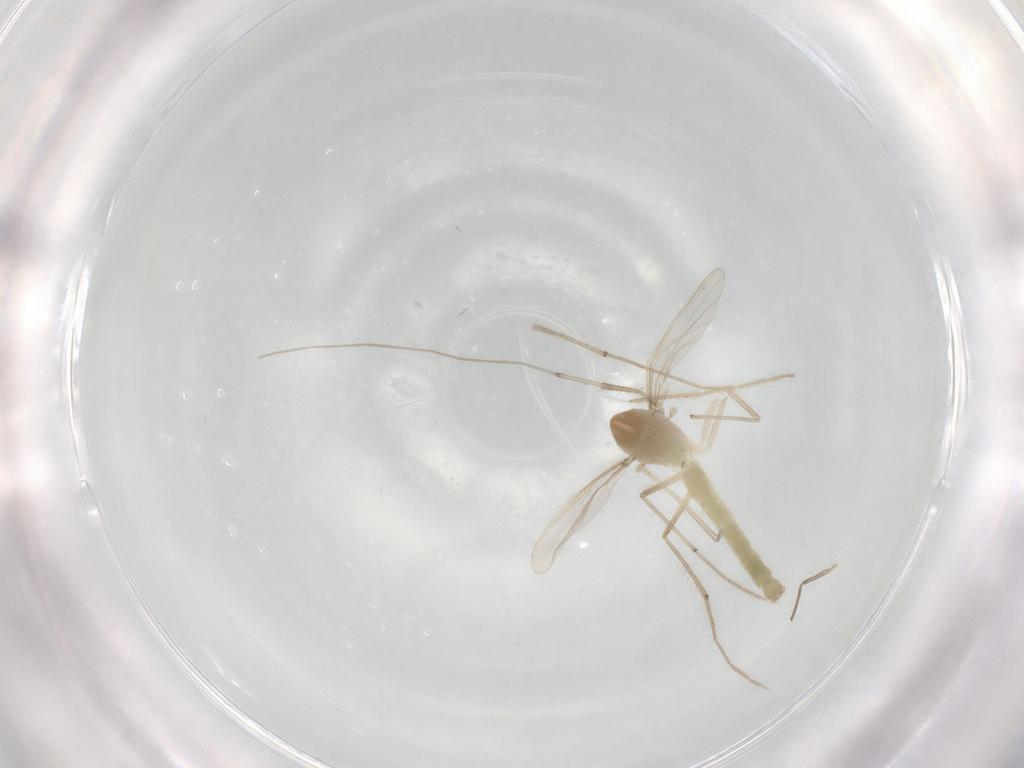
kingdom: Animalia
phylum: Arthropoda
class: Insecta
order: Diptera
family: Chironomidae
